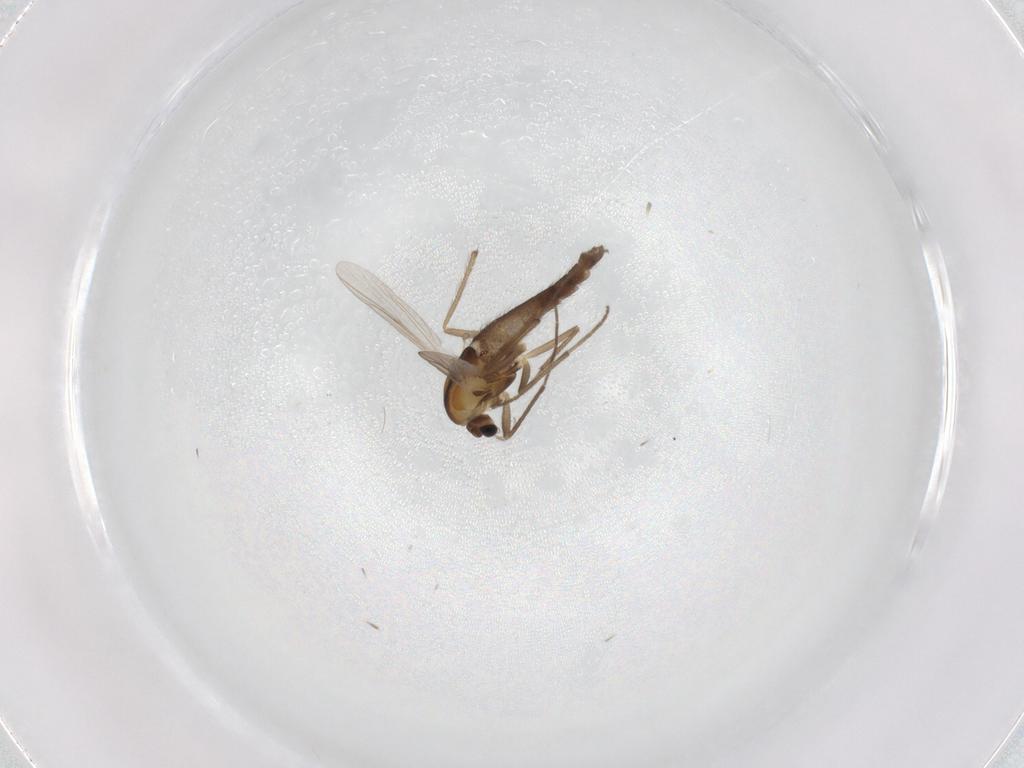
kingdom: Animalia
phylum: Arthropoda
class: Insecta
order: Diptera
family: Chironomidae
